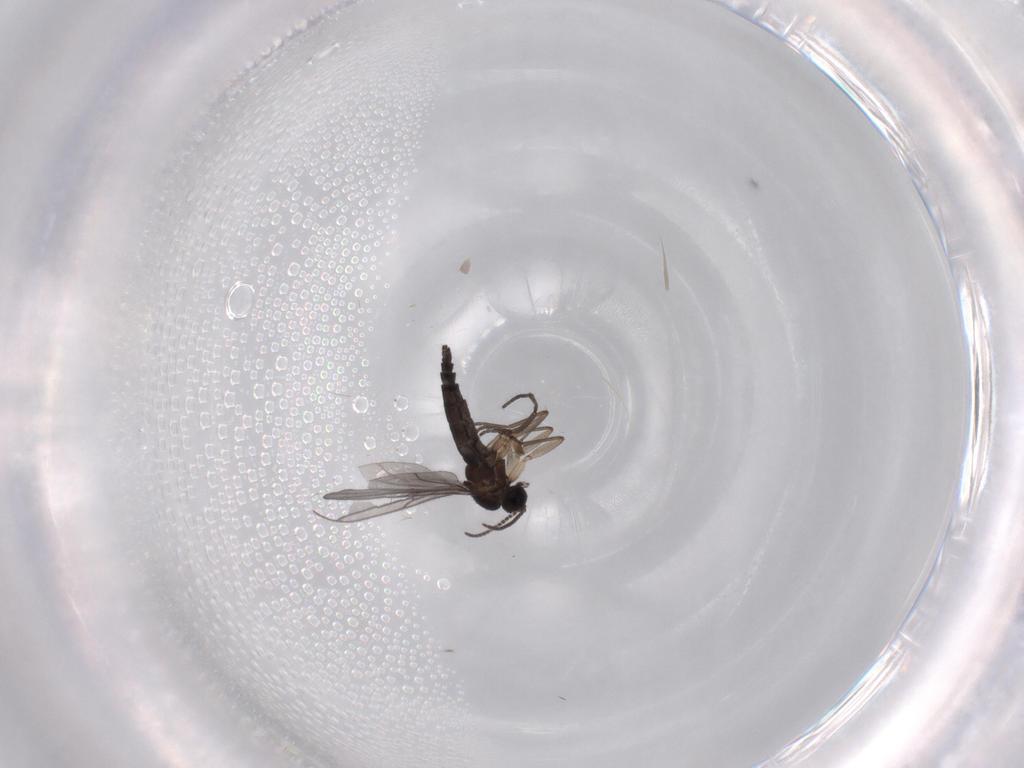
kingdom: Animalia
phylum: Arthropoda
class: Insecta
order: Diptera
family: Sciaridae
